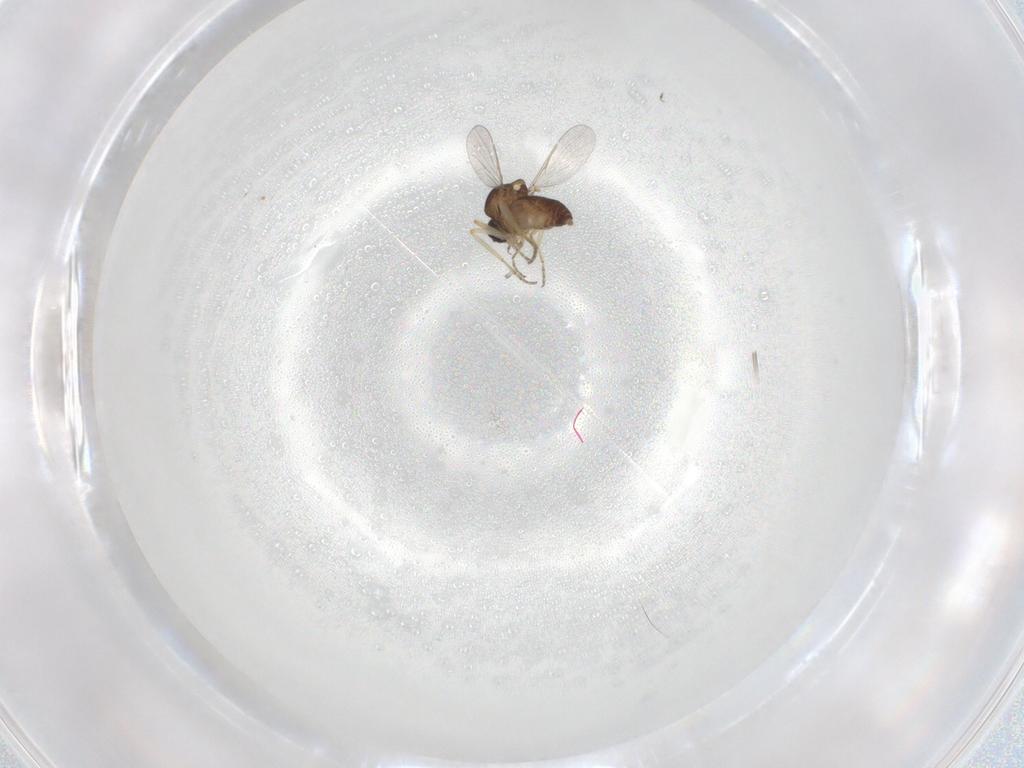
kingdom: Animalia
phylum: Arthropoda
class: Insecta
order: Diptera
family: Ceratopogonidae
